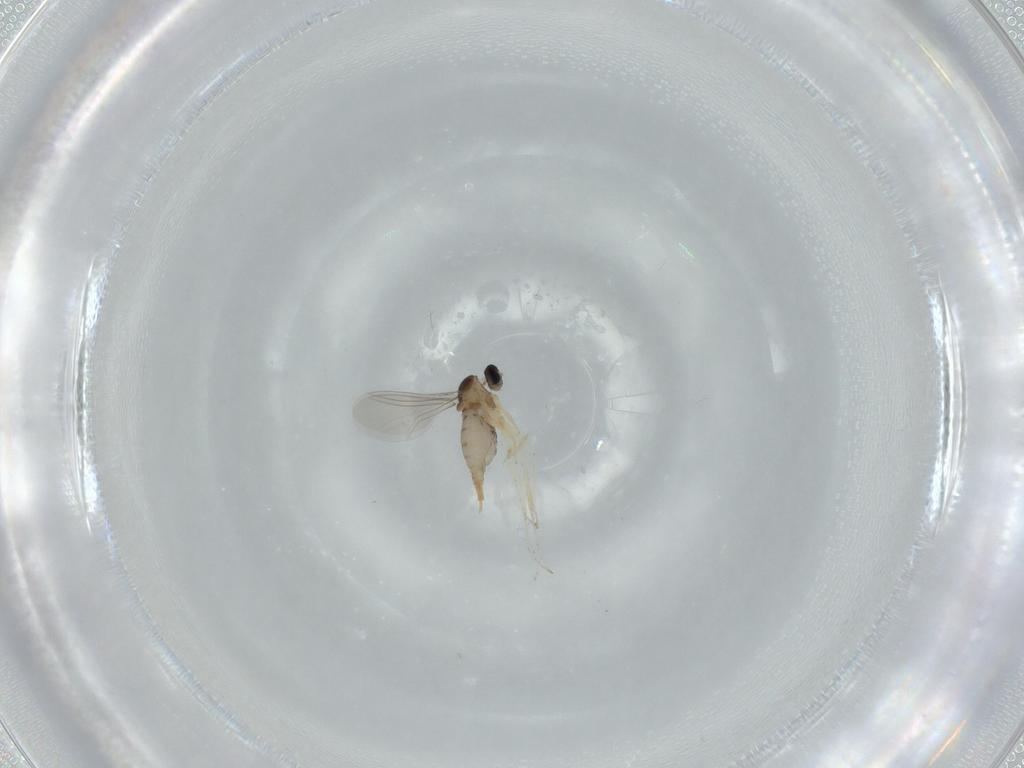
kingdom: Animalia
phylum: Arthropoda
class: Insecta
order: Diptera
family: Cecidomyiidae
